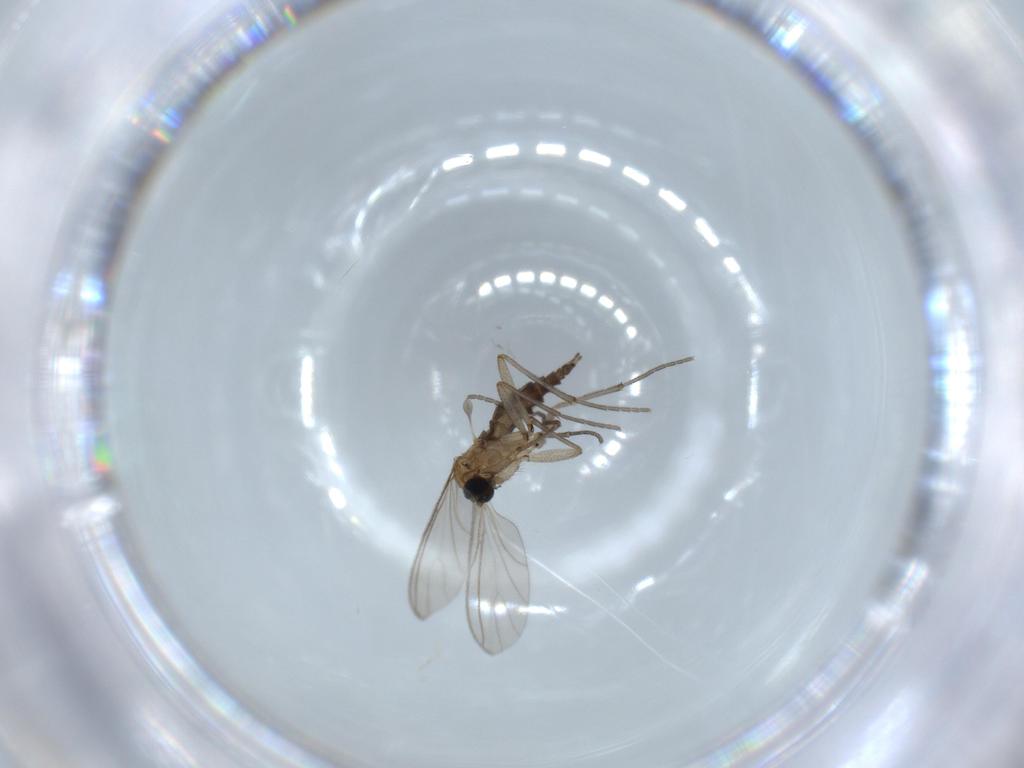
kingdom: Animalia
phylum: Arthropoda
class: Insecta
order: Diptera
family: Sciaridae
